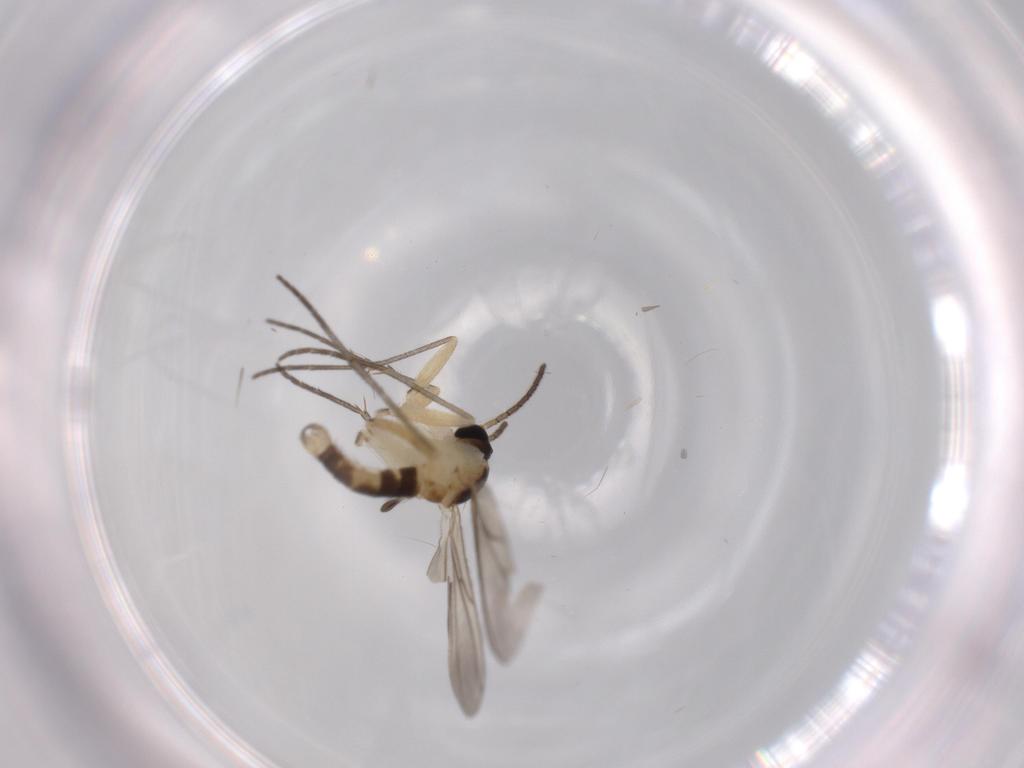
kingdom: Animalia
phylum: Arthropoda
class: Insecta
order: Diptera
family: Sciaridae
